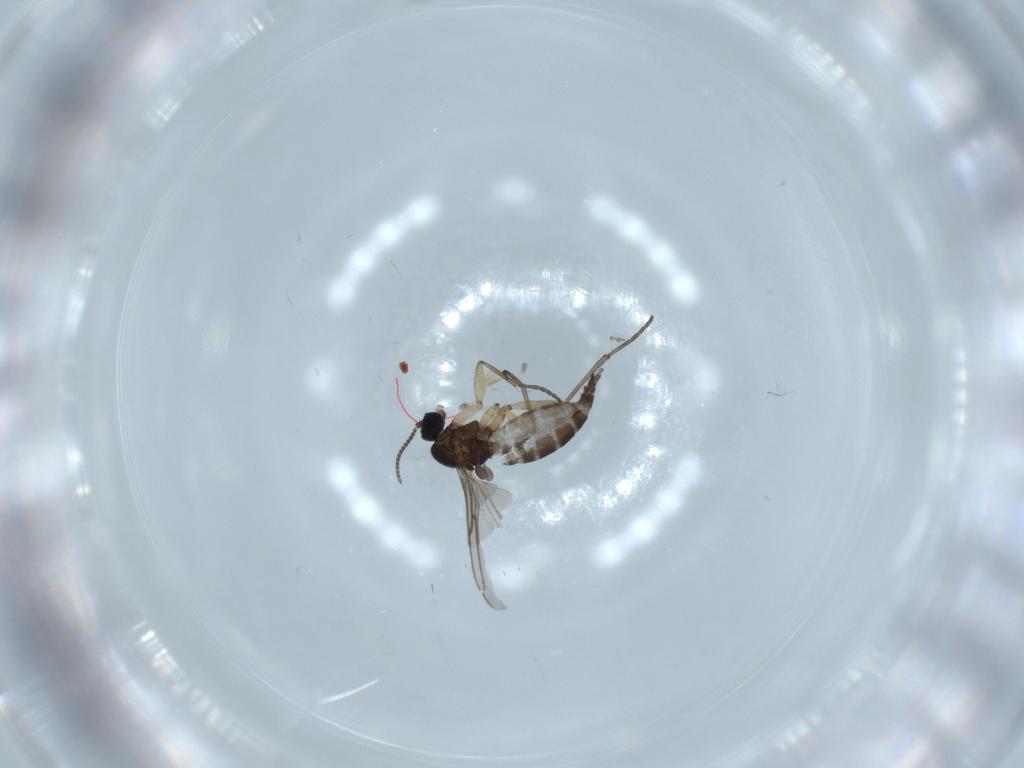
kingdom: Animalia
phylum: Arthropoda
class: Insecta
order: Diptera
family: Sciaridae
